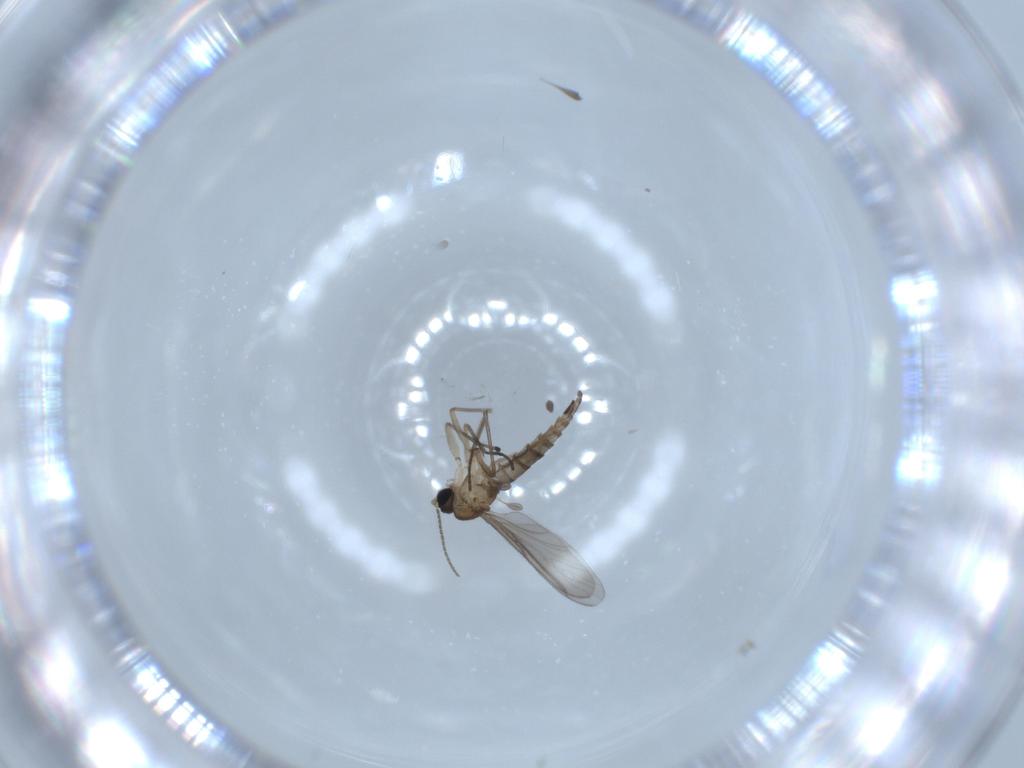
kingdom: Animalia
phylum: Arthropoda
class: Insecta
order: Diptera
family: Sciaridae
